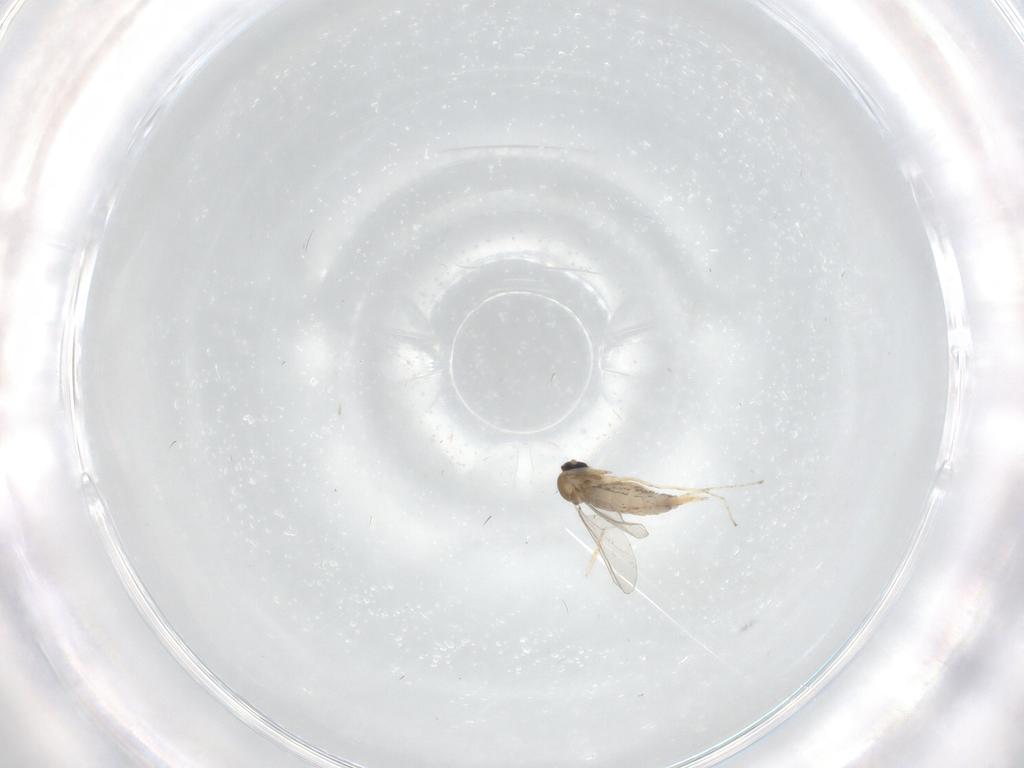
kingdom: Animalia
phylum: Arthropoda
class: Insecta
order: Diptera
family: Cecidomyiidae
